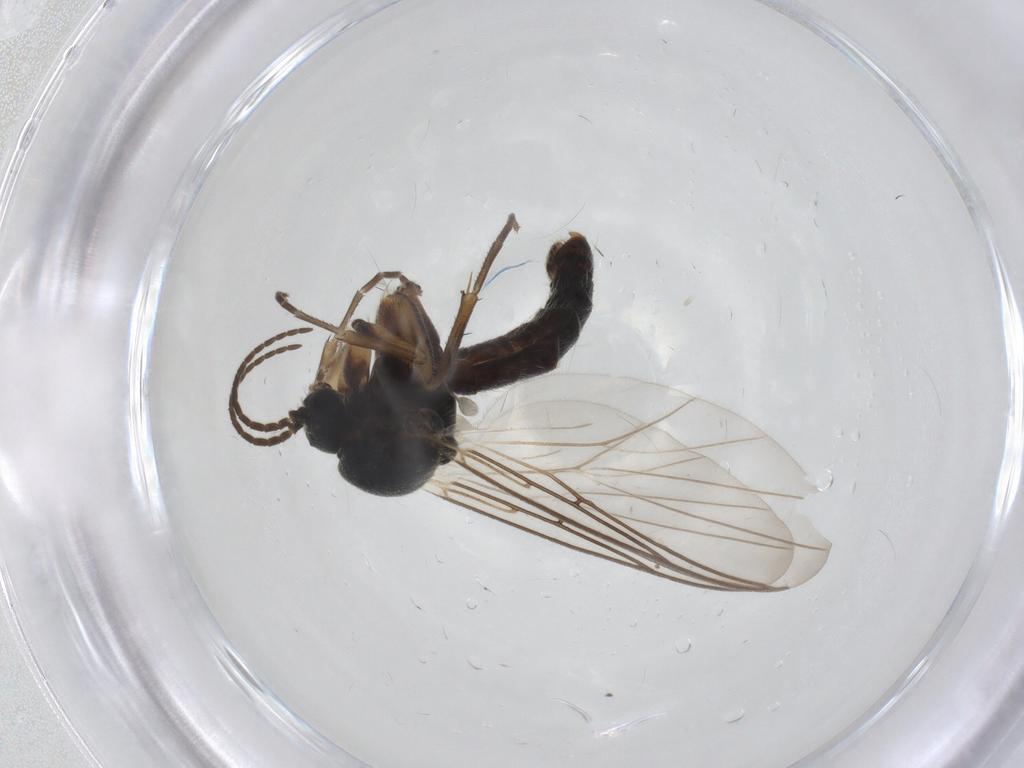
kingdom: Animalia
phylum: Arthropoda
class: Insecta
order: Diptera
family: Mycetophilidae
